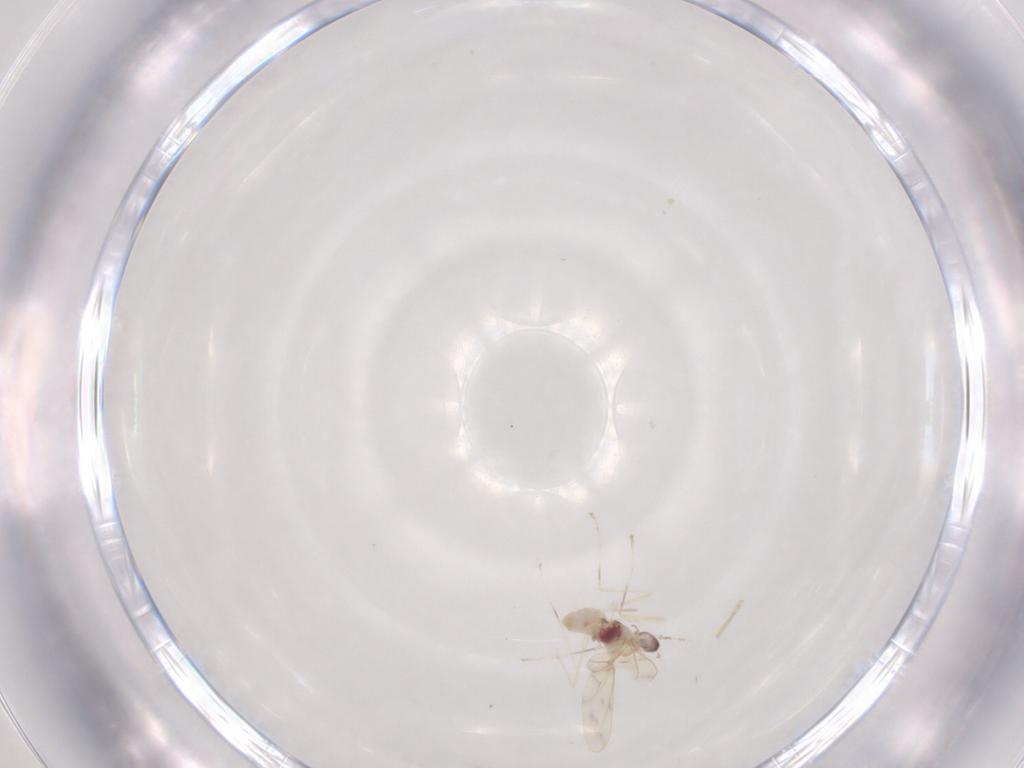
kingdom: Animalia
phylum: Arthropoda
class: Insecta
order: Diptera
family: Cecidomyiidae
